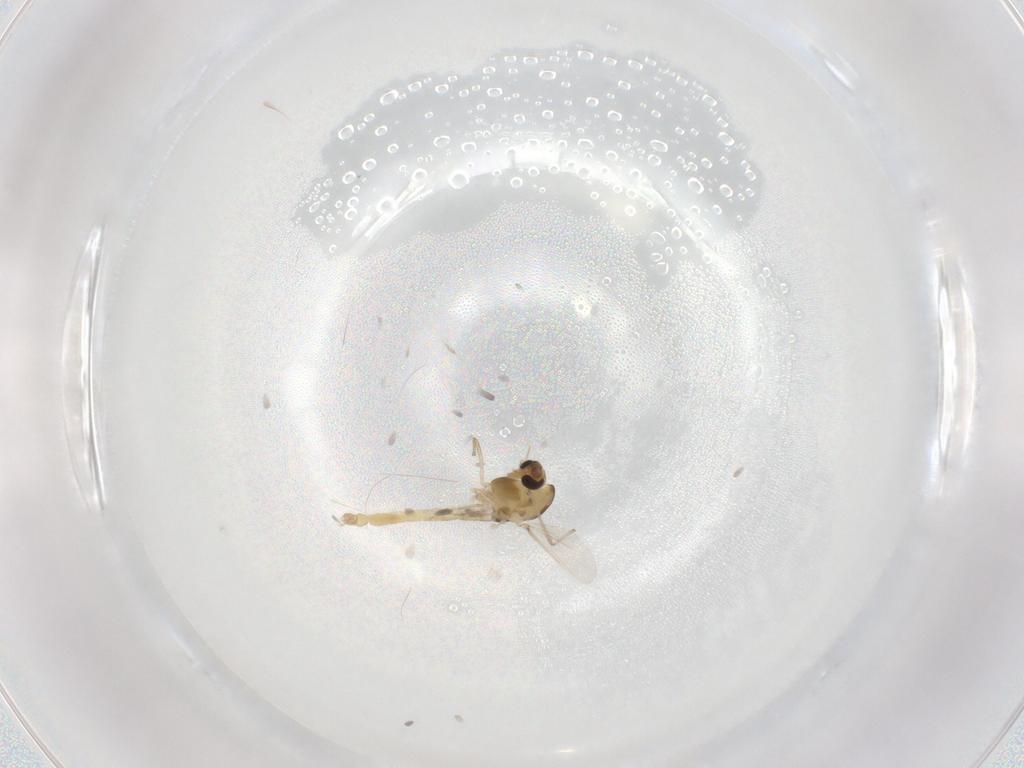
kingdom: Animalia
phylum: Arthropoda
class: Insecta
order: Diptera
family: Chironomidae
